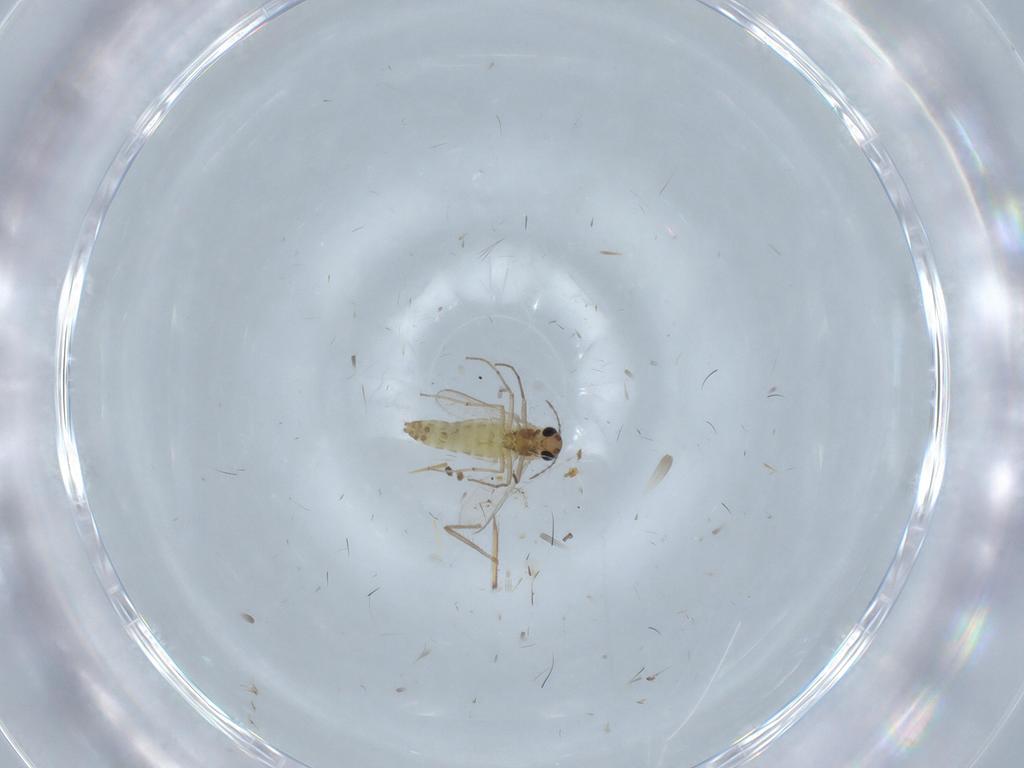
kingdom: Animalia
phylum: Arthropoda
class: Insecta
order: Diptera
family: Chironomidae
